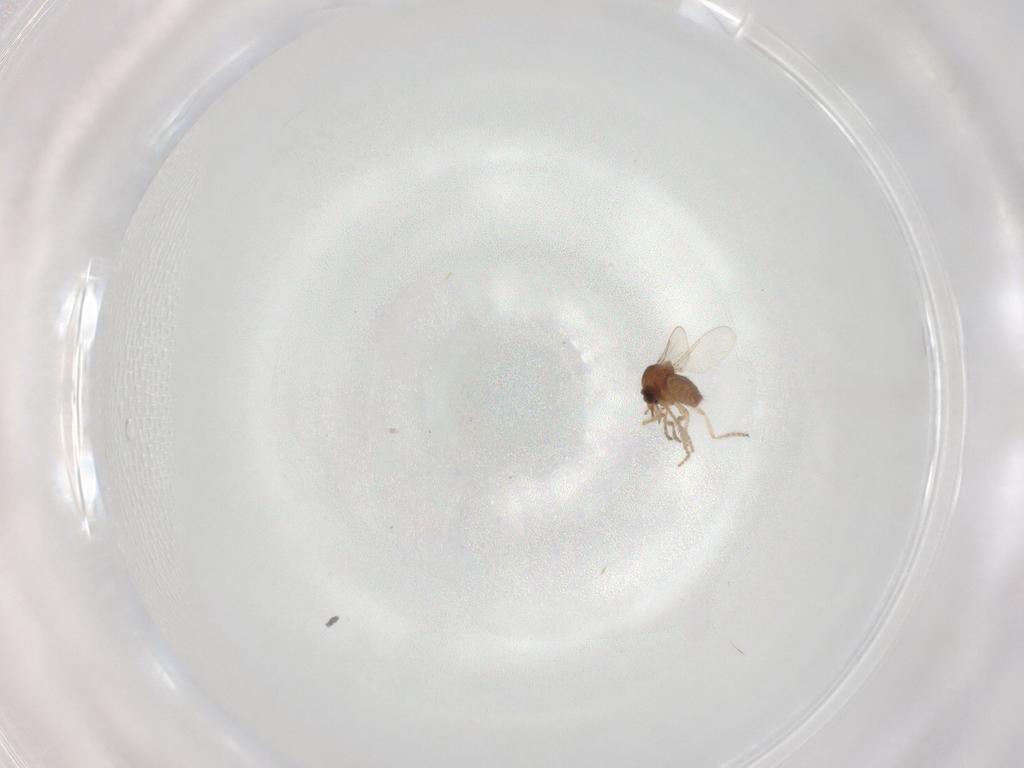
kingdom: Animalia
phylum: Arthropoda
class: Insecta
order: Diptera
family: Ceratopogonidae
